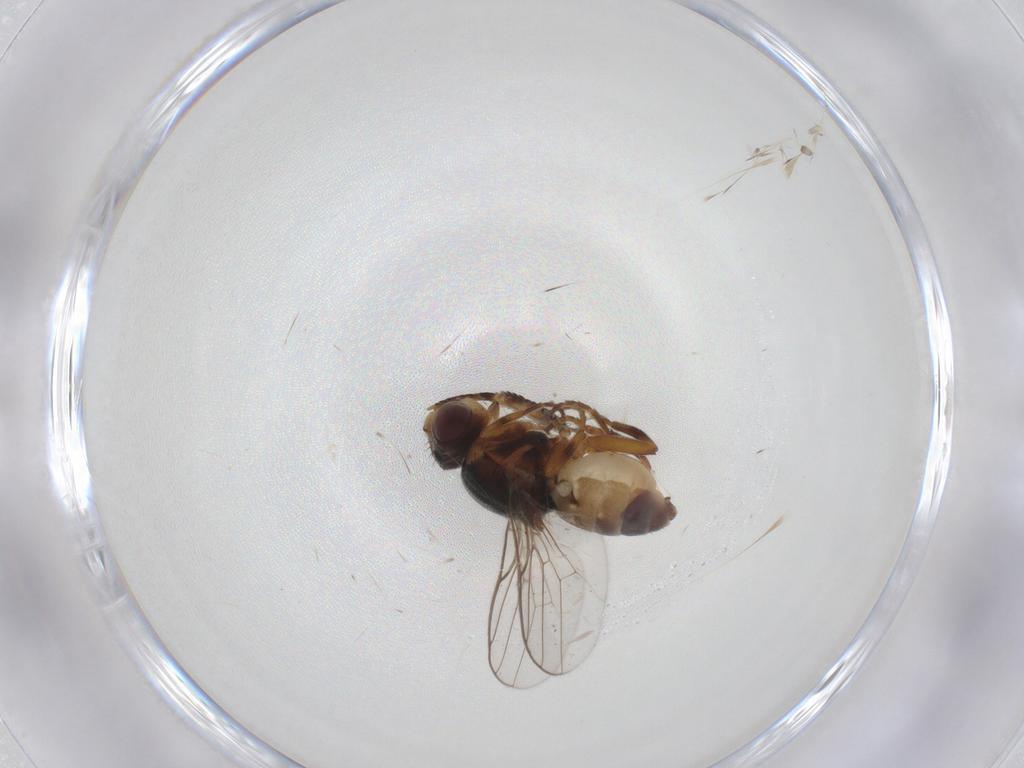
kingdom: Animalia
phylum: Arthropoda
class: Insecta
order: Diptera
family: Chloropidae
